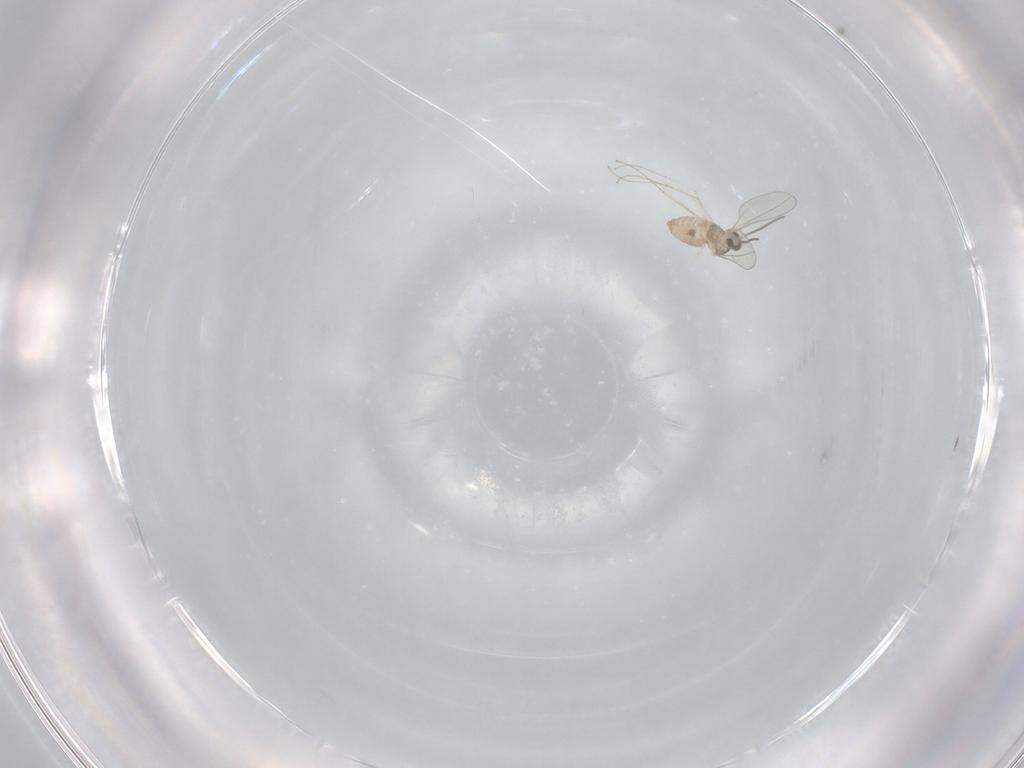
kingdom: Animalia
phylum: Arthropoda
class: Insecta
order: Diptera
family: Cecidomyiidae
